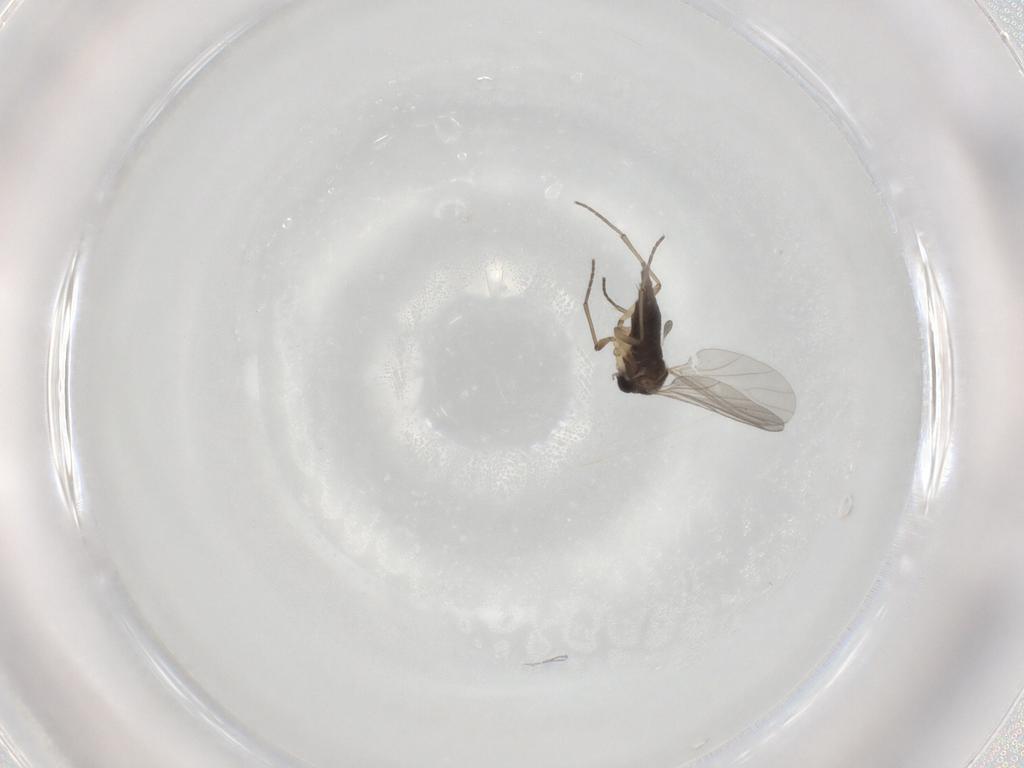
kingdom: Animalia
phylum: Arthropoda
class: Insecta
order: Diptera
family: Sciaridae
